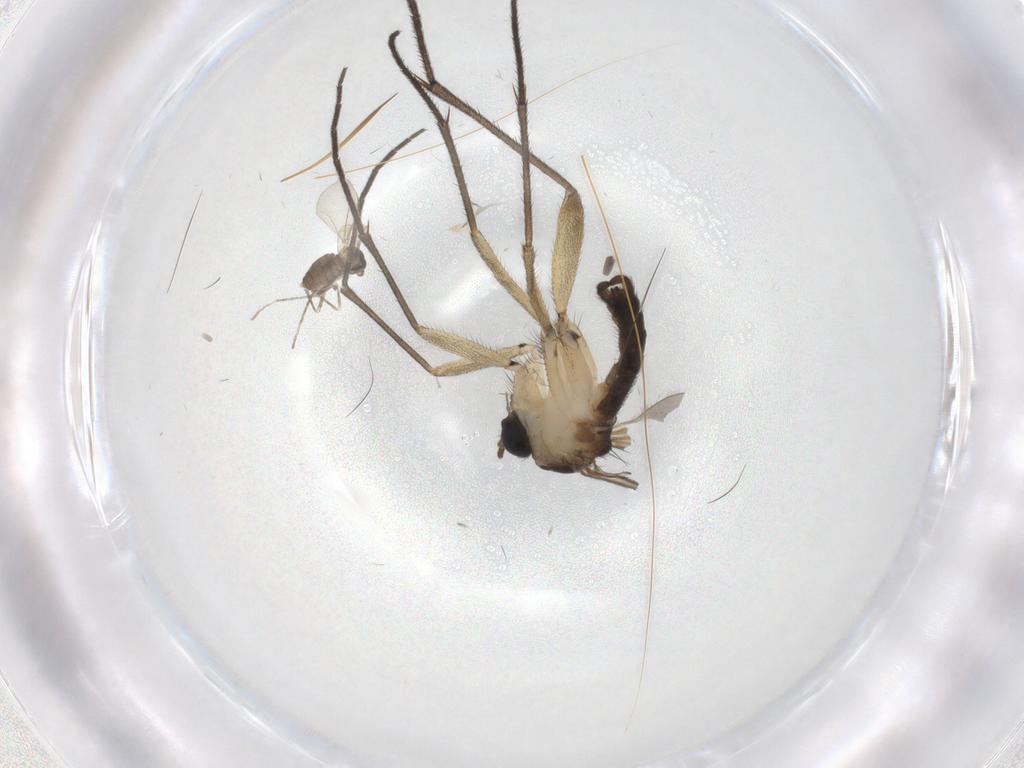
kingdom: Animalia
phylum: Arthropoda
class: Insecta
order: Diptera
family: Sciaridae
